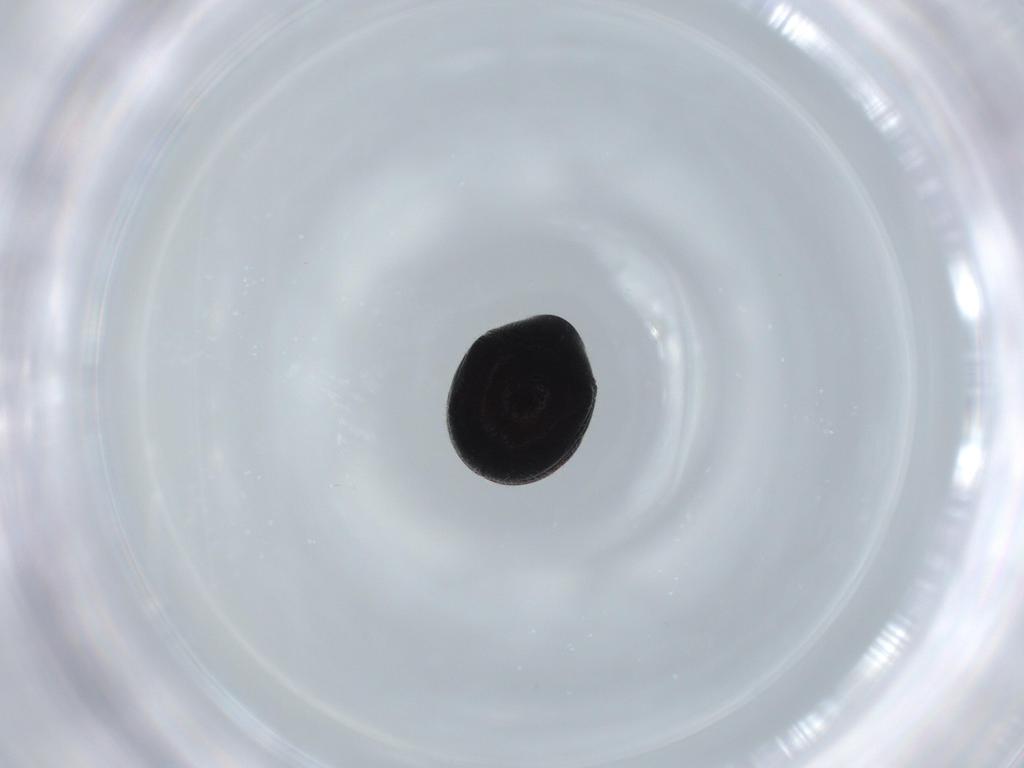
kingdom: Animalia
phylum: Arthropoda
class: Insecta
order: Coleoptera
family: Ptinidae
